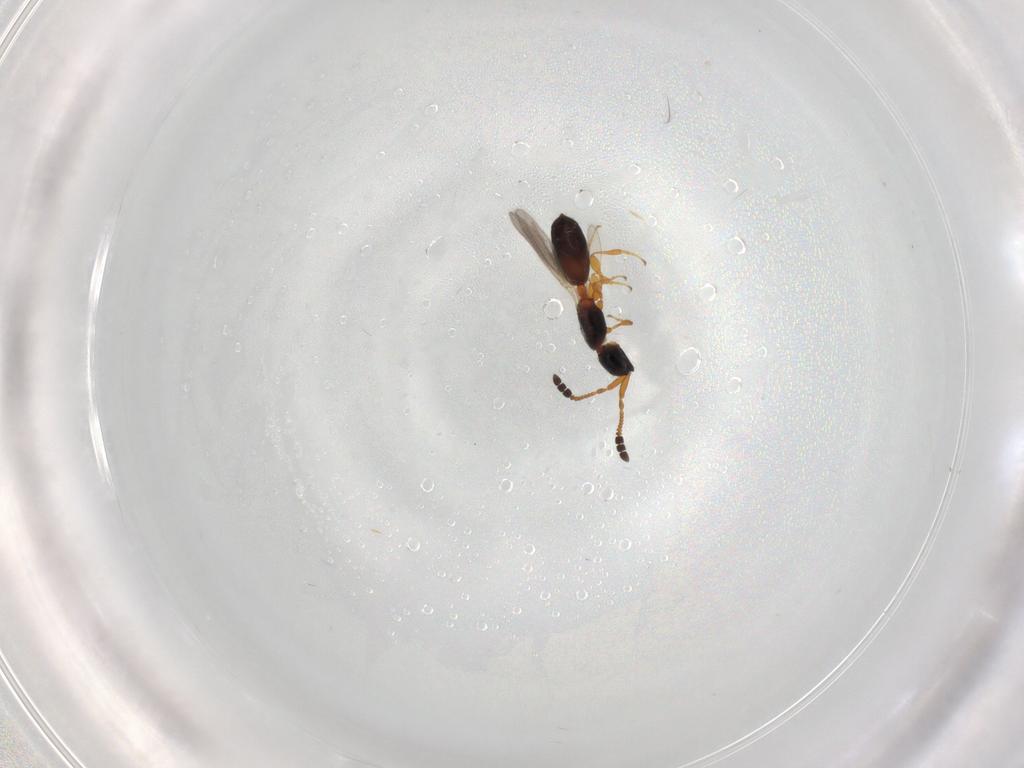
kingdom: Animalia
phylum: Arthropoda
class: Insecta
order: Hymenoptera
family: Diapriidae
